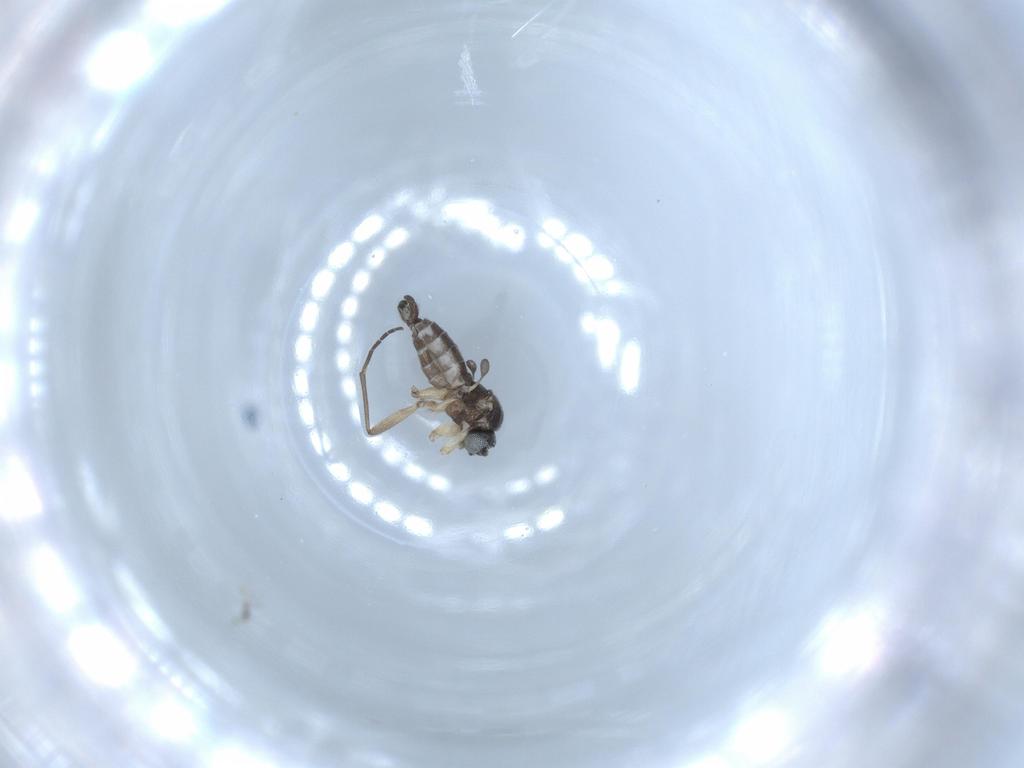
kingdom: Animalia
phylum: Arthropoda
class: Insecta
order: Diptera
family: Sciaridae
